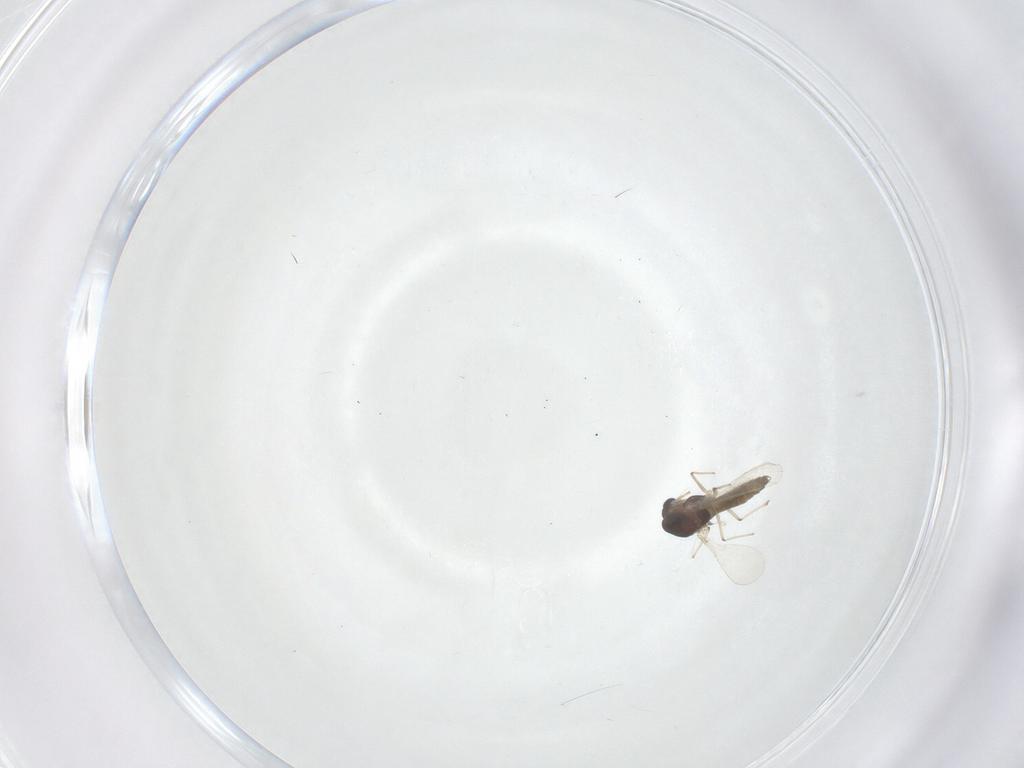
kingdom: Animalia
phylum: Arthropoda
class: Insecta
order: Diptera
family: Chironomidae
